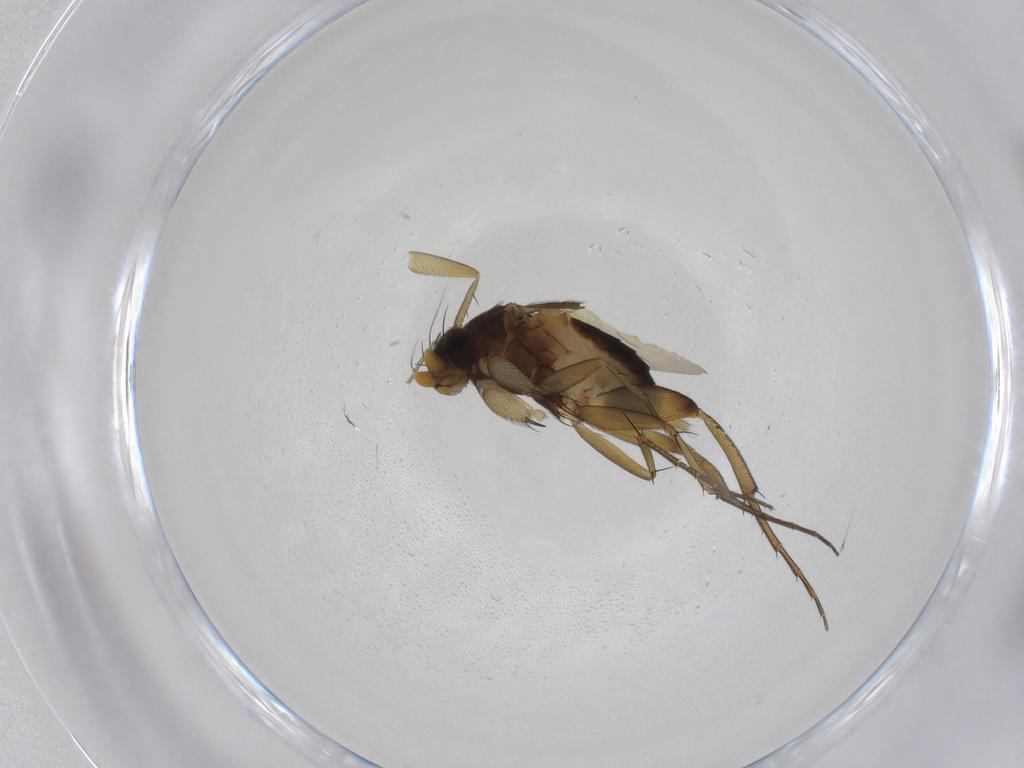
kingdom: Animalia
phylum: Arthropoda
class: Insecta
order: Diptera
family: Phoridae
